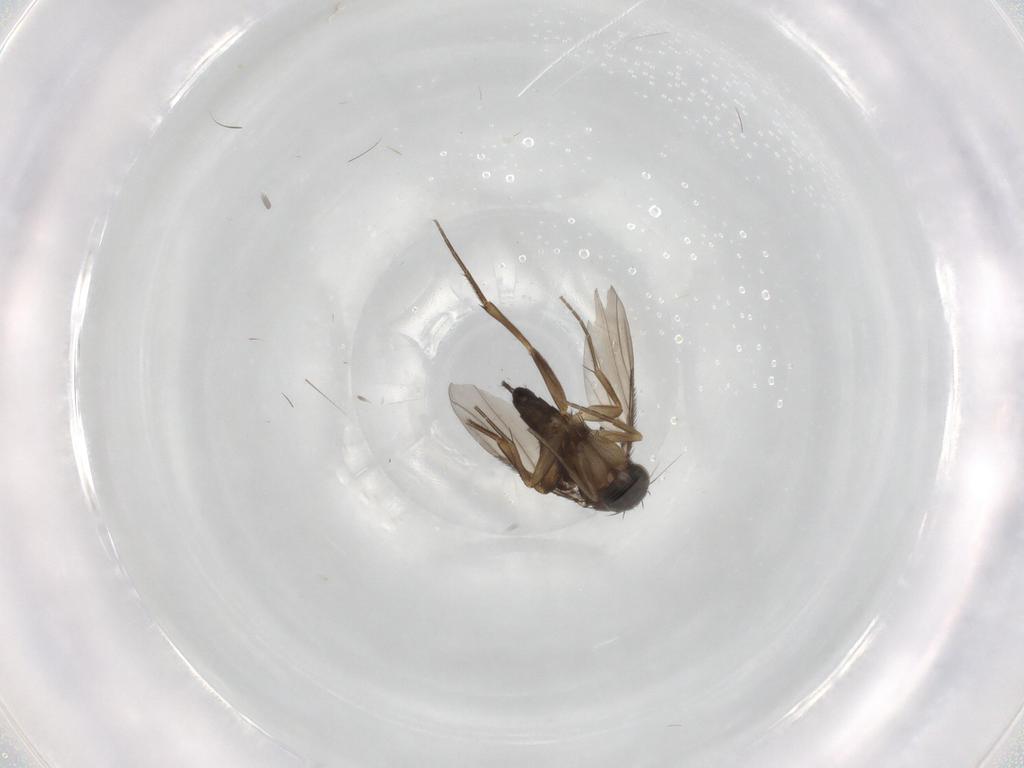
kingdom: Animalia
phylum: Arthropoda
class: Insecta
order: Diptera
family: Phoridae
